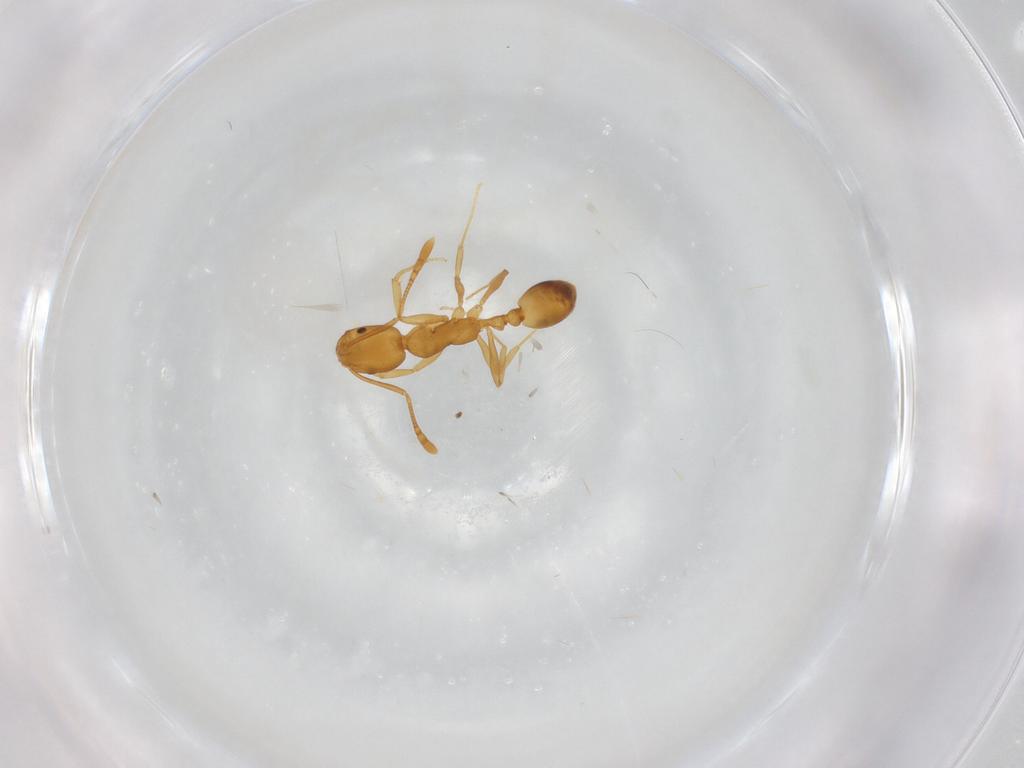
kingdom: Animalia
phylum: Arthropoda
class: Insecta
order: Hymenoptera
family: Formicidae
